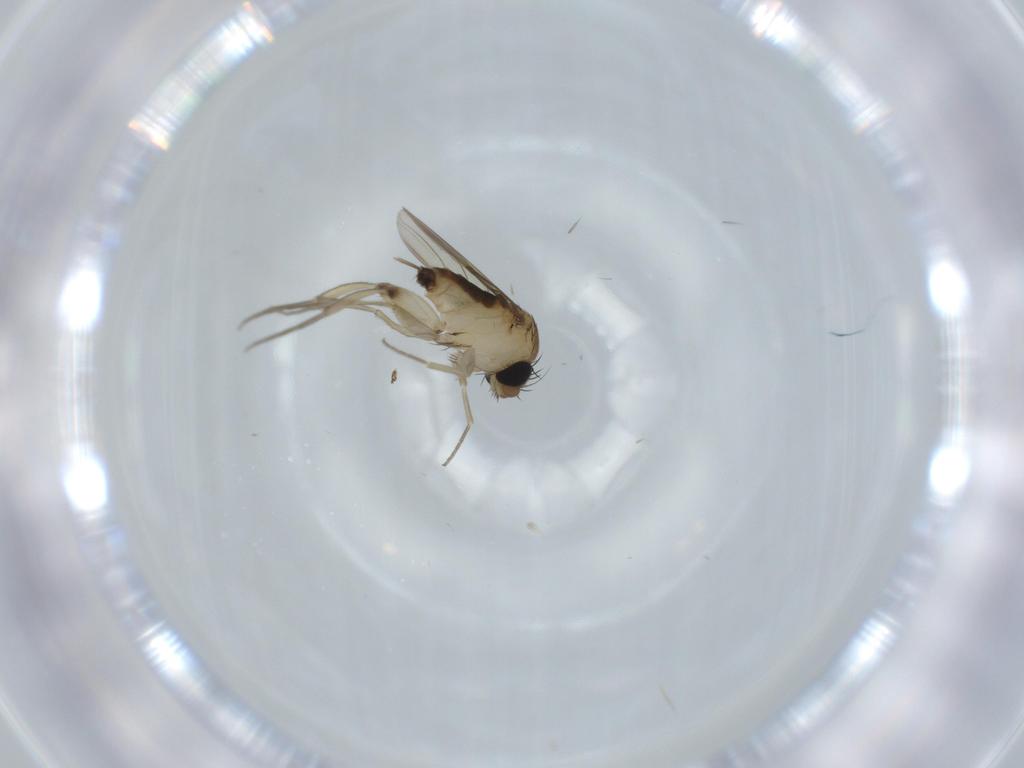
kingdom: Animalia
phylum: Arthropoda
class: Insecta
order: Diptera
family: Phoridae
